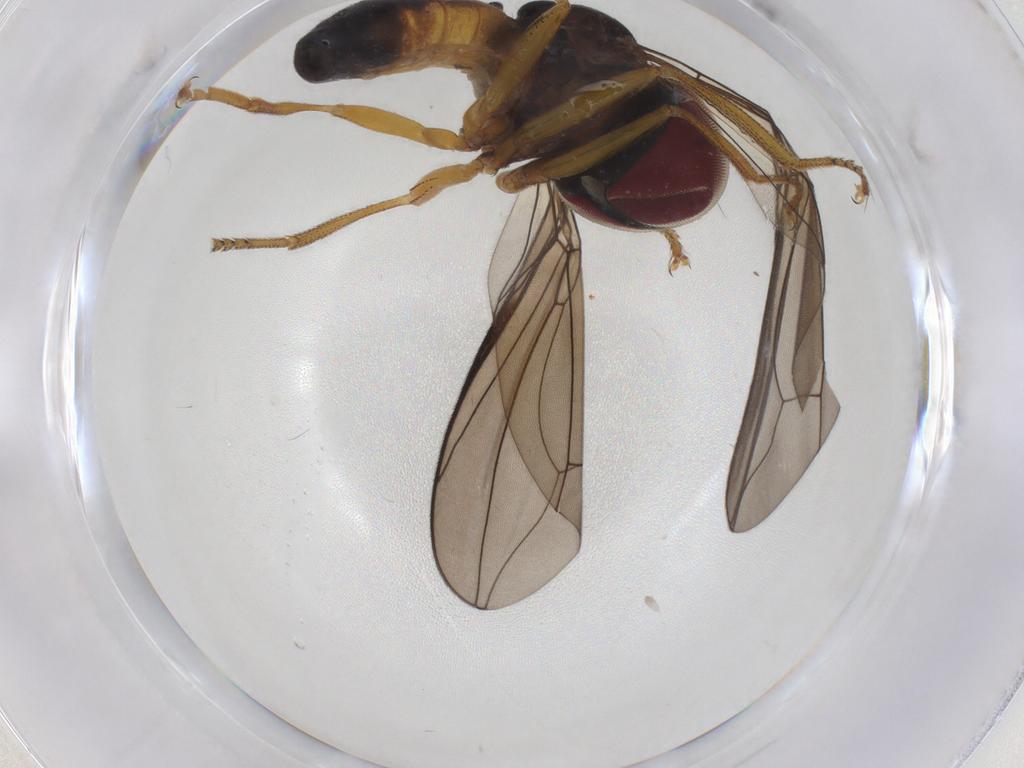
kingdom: Animalia
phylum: Arthropoda
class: Insecta
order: Diptera
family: Pipunculidae
